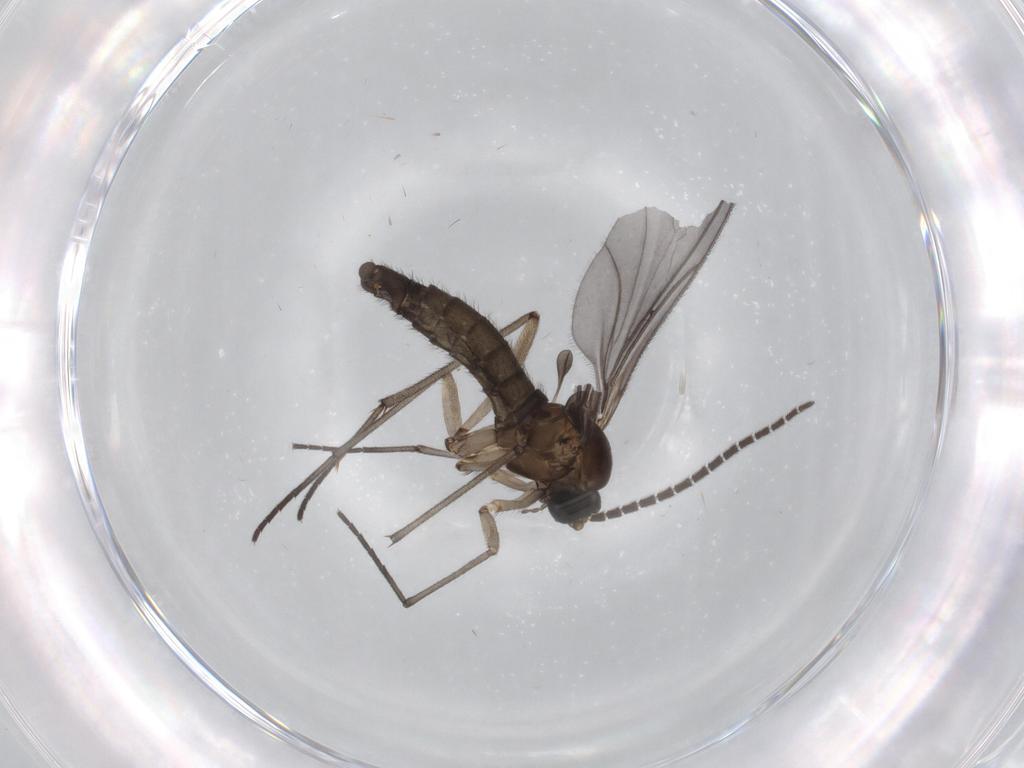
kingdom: Animalia
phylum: Arthropoda
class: Insecta
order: Diptera
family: Sciaridae
